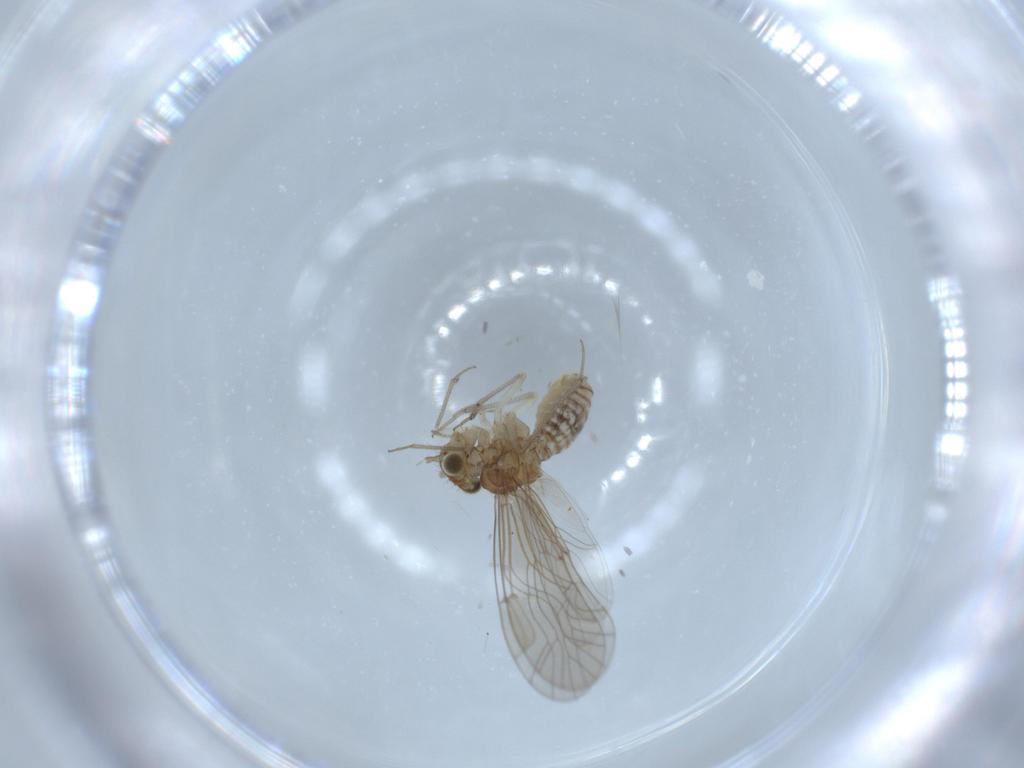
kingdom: Animalia
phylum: Arthropoda
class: Insecta
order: Psocodea
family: Lachesillidae
